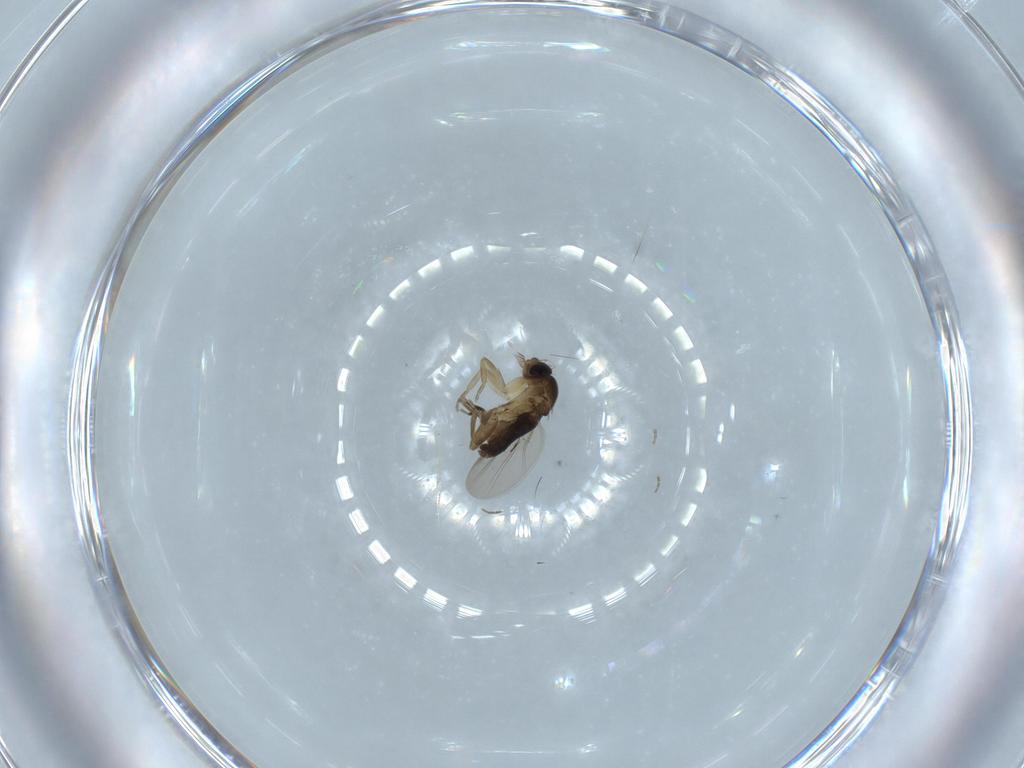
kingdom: Animalia
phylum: Arthropoda
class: Insecta
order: Diptera
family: Phoridae
